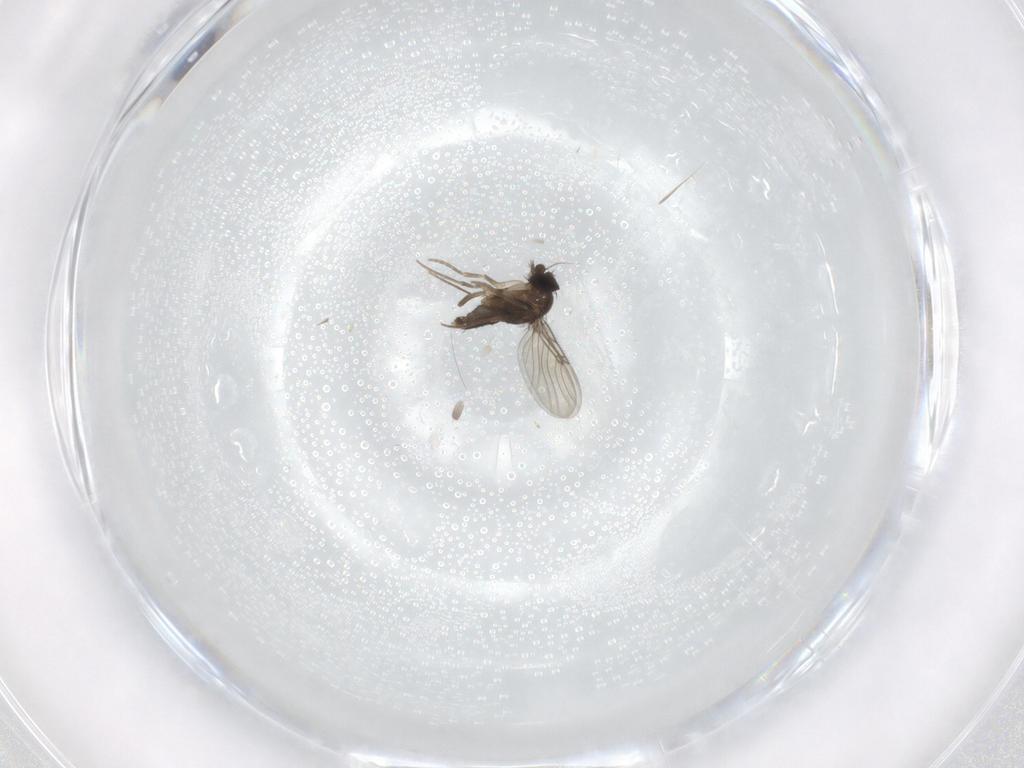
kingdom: Animalia
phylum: Arthropoda
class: Insecta
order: Diptera
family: Phoridae
